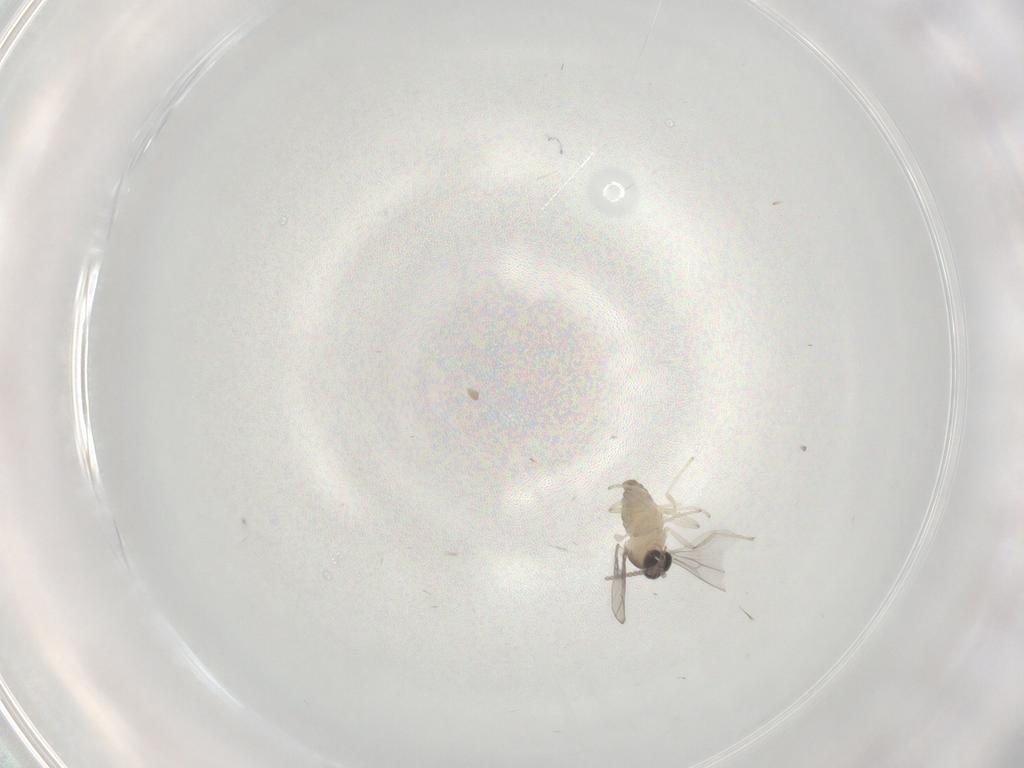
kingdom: Animalia
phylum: Arthropoda
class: Insecta
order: Diptera
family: Cecidomyiidae
